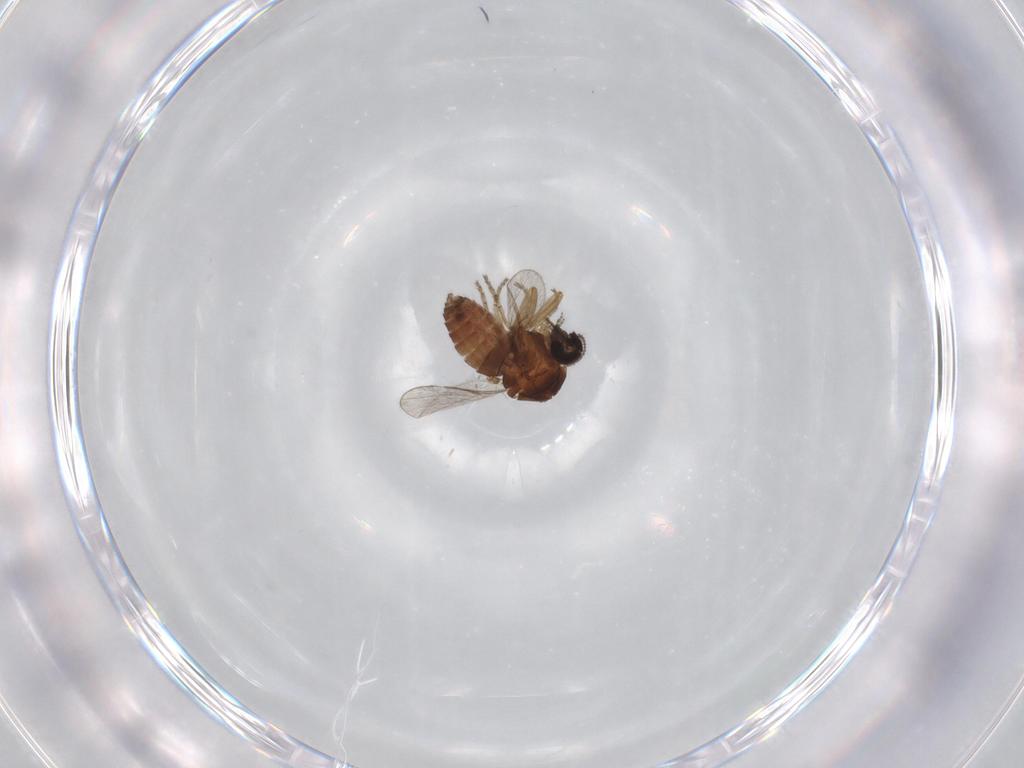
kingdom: Animalia
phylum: Arthropoda
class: Insecta
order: Diptera
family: Ceratopogonidae
